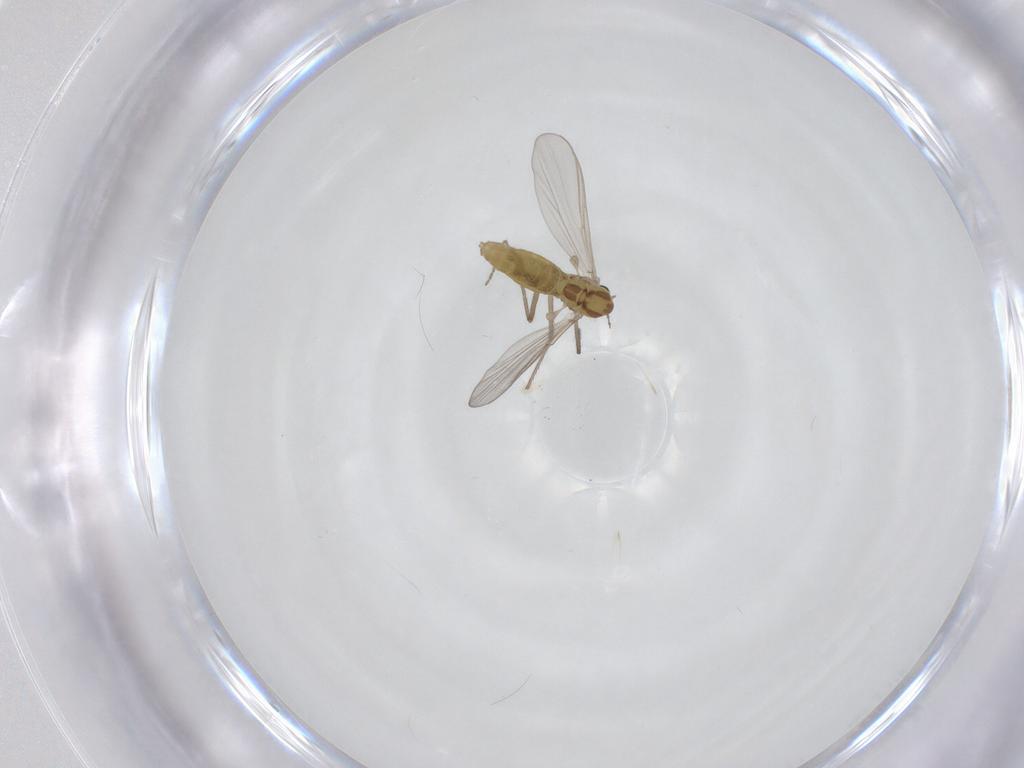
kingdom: Animalia
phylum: Arthropoda
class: Insecta
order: Diptera
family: Chironomidae
